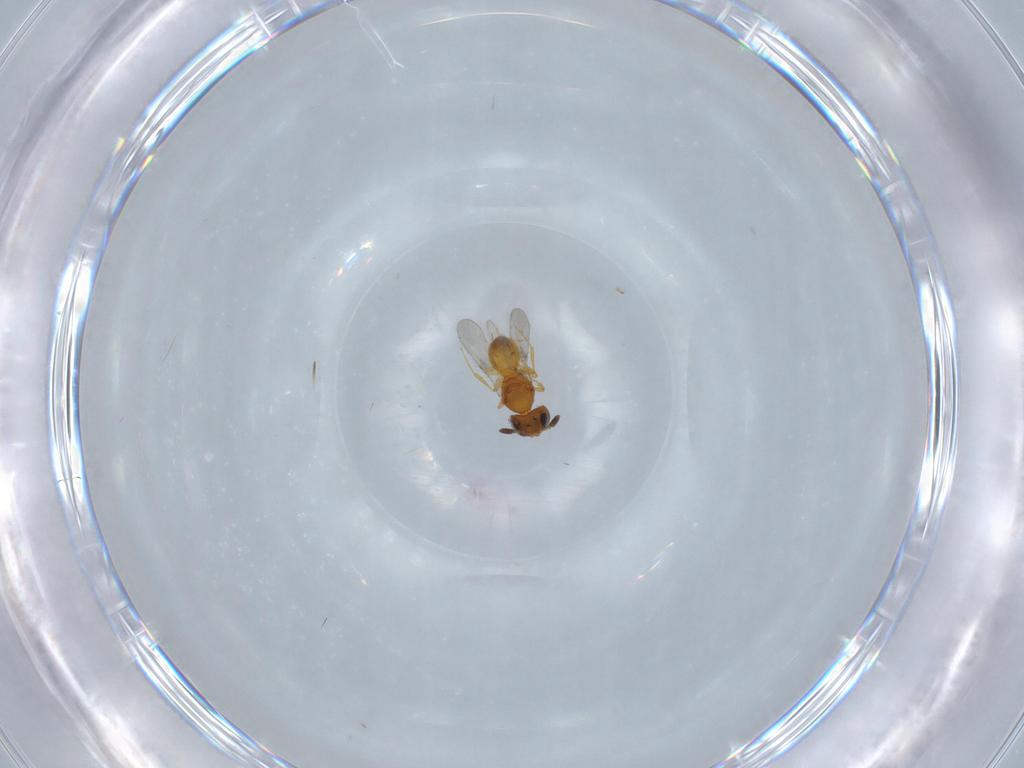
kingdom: Animalia
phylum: Arthropoda
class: Insecta
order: Hymenoptera
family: Scelionidae
